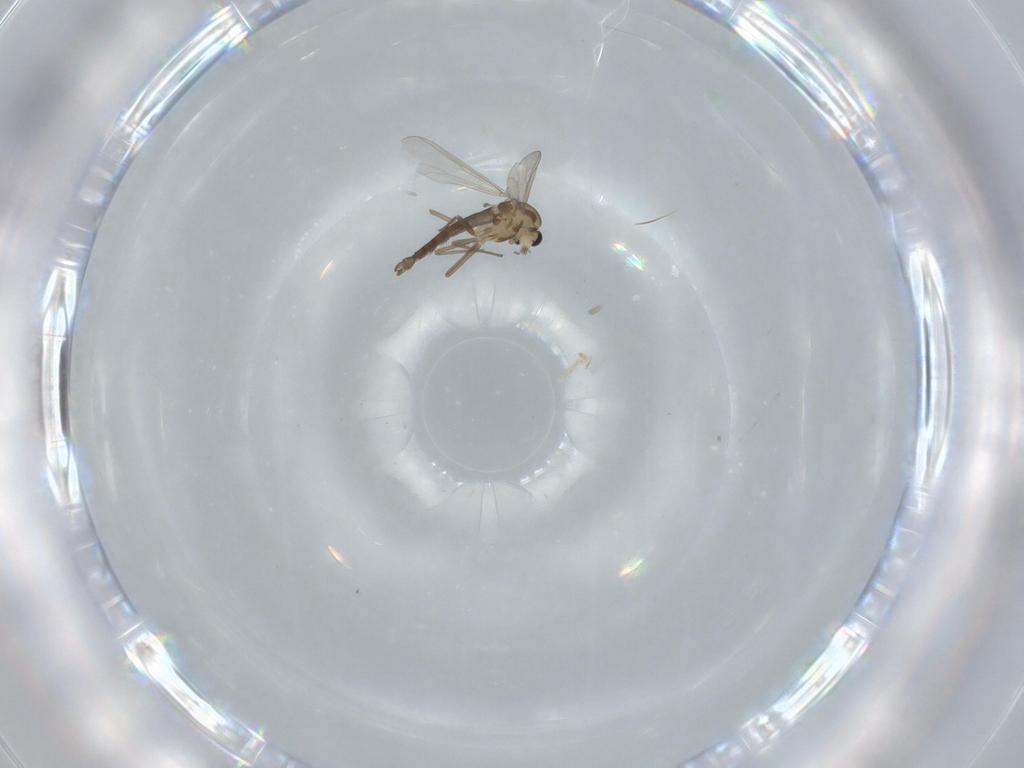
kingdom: Animalia
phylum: Arthropoda
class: Insecta
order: Diptera
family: Chironomidae
